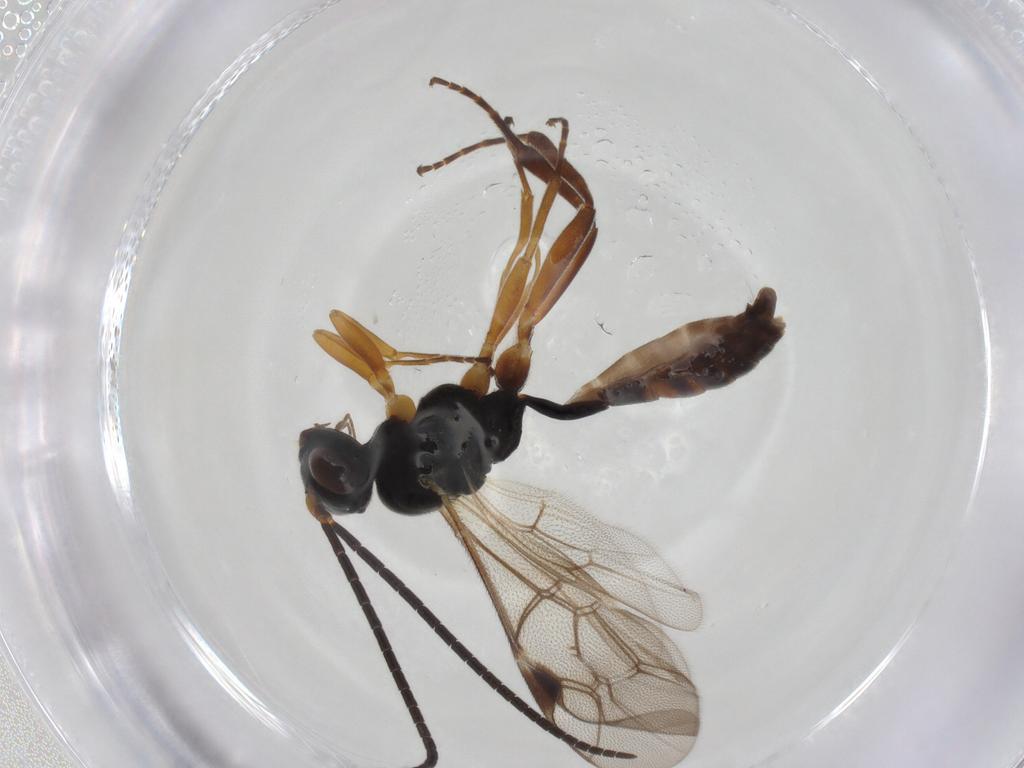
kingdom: Animalia
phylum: Arthropoda
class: Insecta
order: Hymenoptera
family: Ichneumonidae
